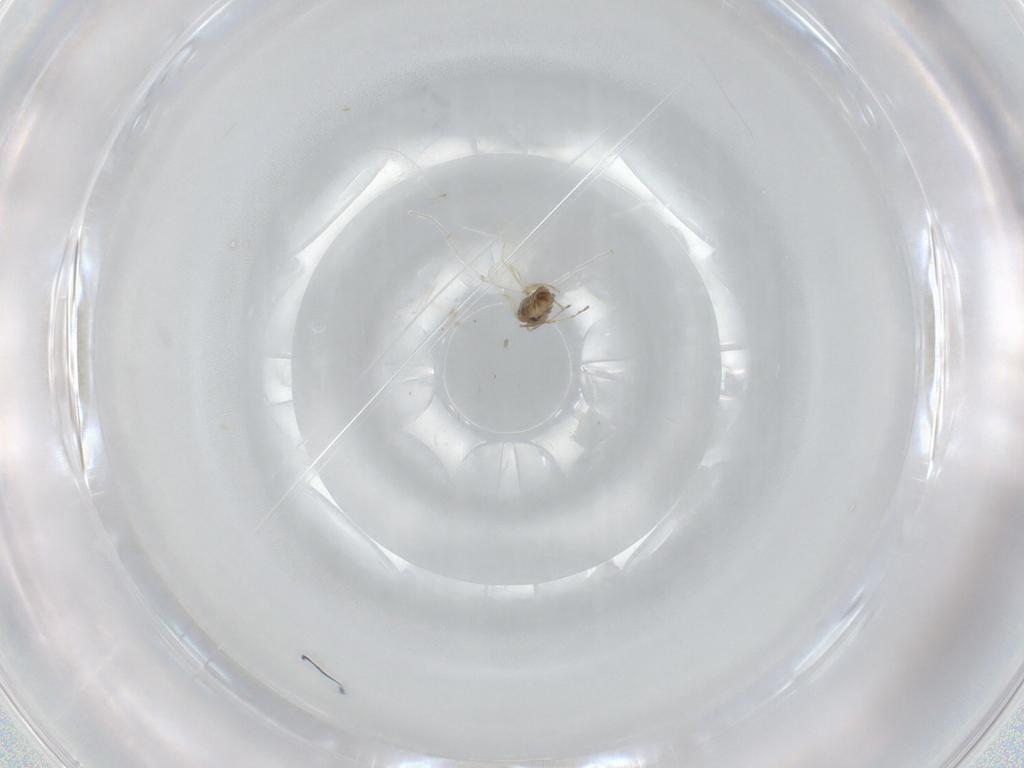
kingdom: Animalia
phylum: Arthropoda
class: Insecta
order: Diptera
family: Cecidomyiidae
